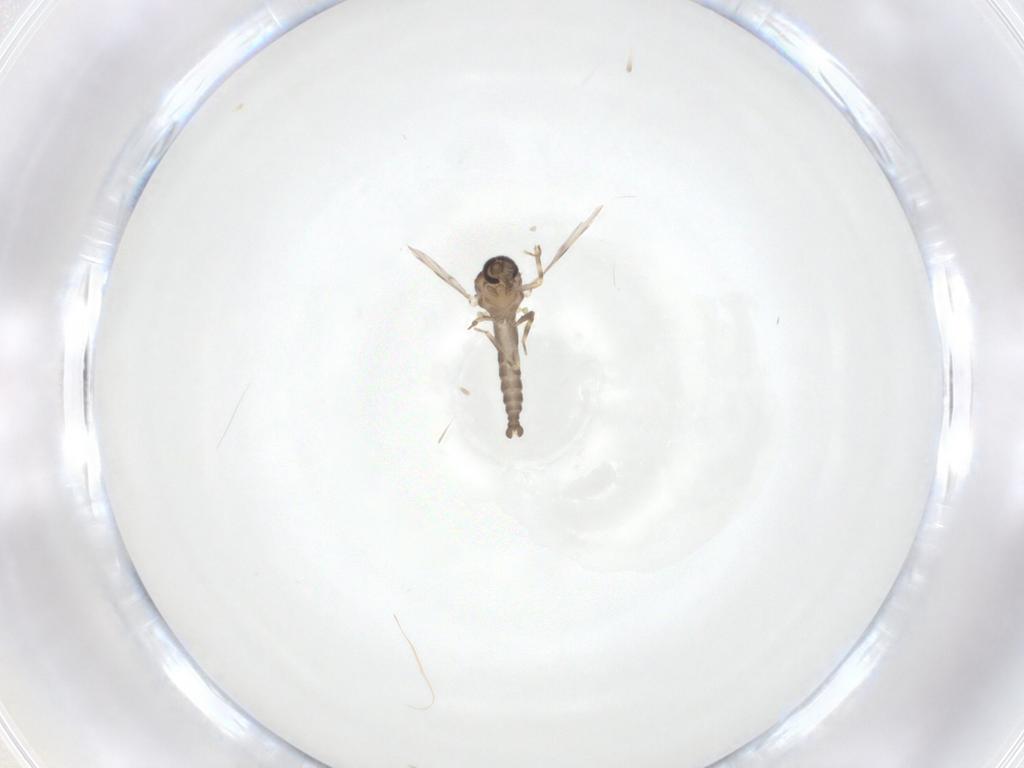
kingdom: Animalia
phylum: Arthropoda
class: Insecta
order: Diptera
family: Ceratopogonidae
